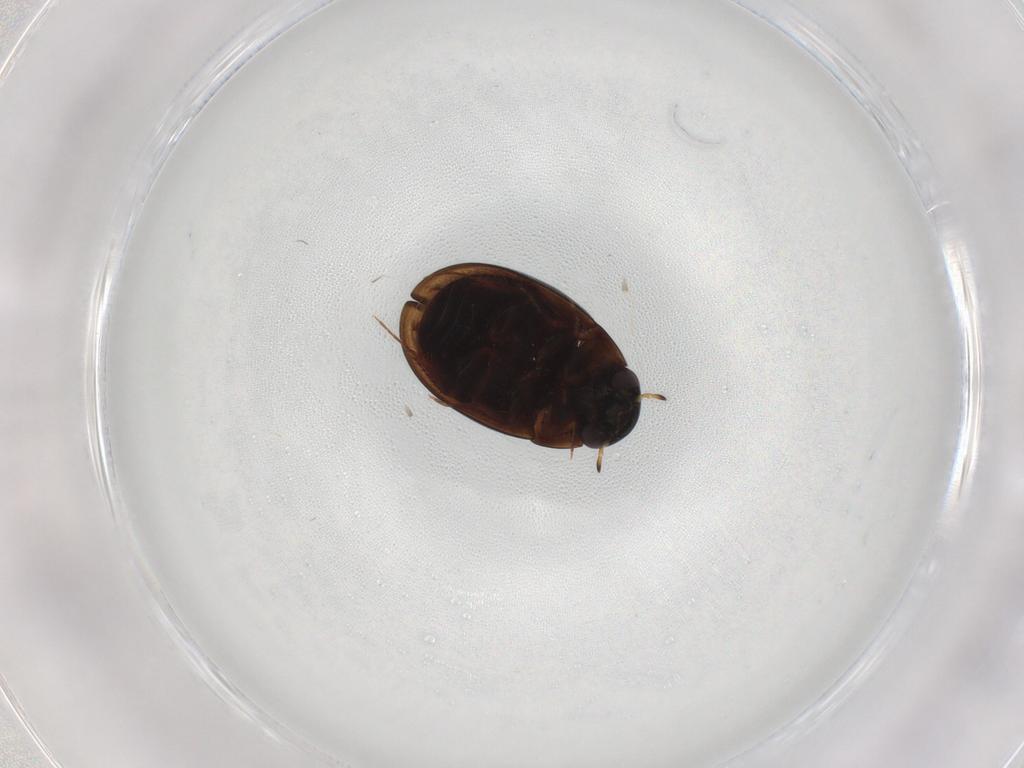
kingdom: Animalia
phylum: Arthropoda
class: Insecta
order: Coleoptera
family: Hydrophilidae
